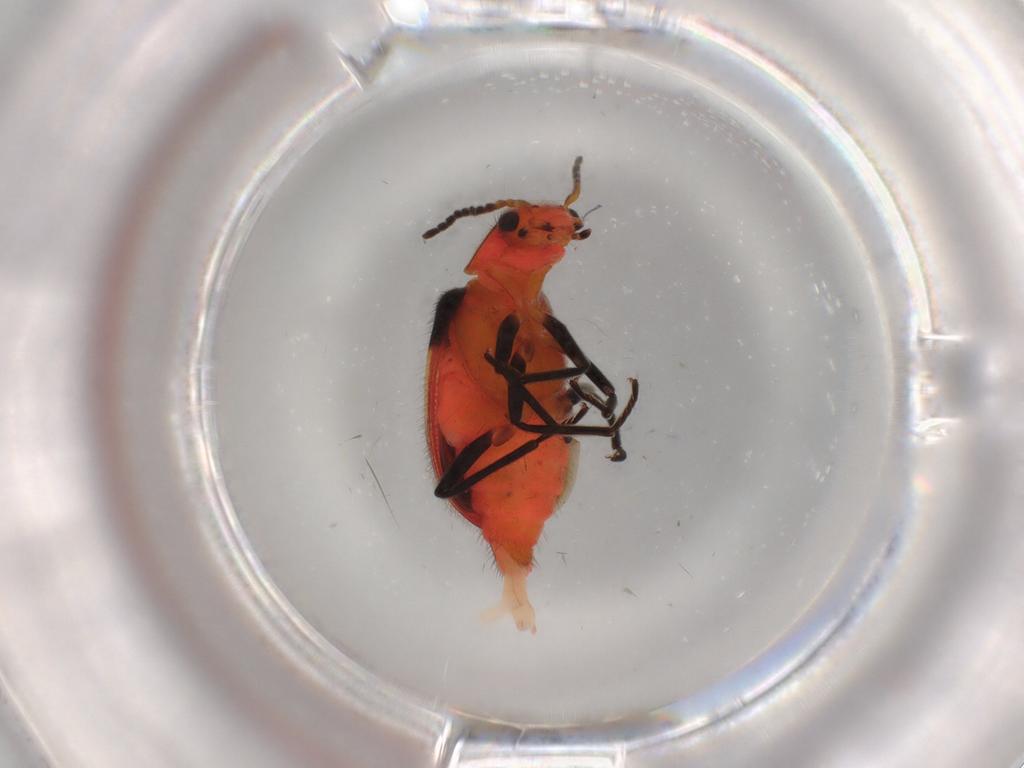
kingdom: Animalia
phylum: Arthropoda
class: Insecta
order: Coleoptera
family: Melyridae
